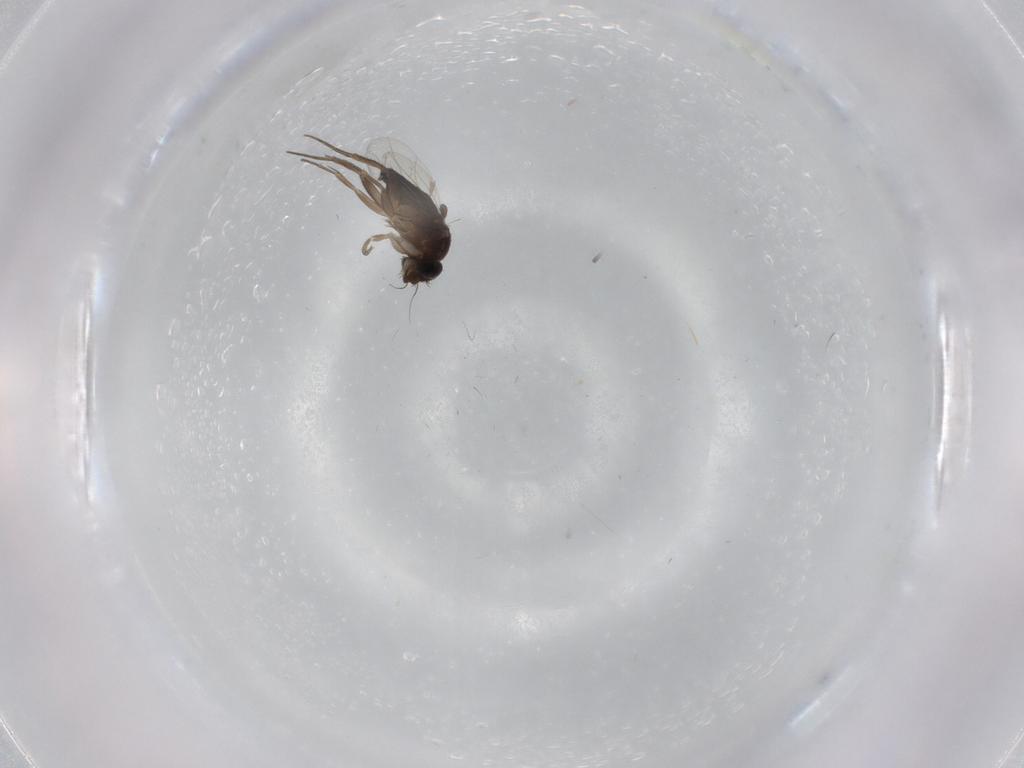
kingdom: Animalia
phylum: Arthropoda
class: Insecta
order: Diptera
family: Phoridae
